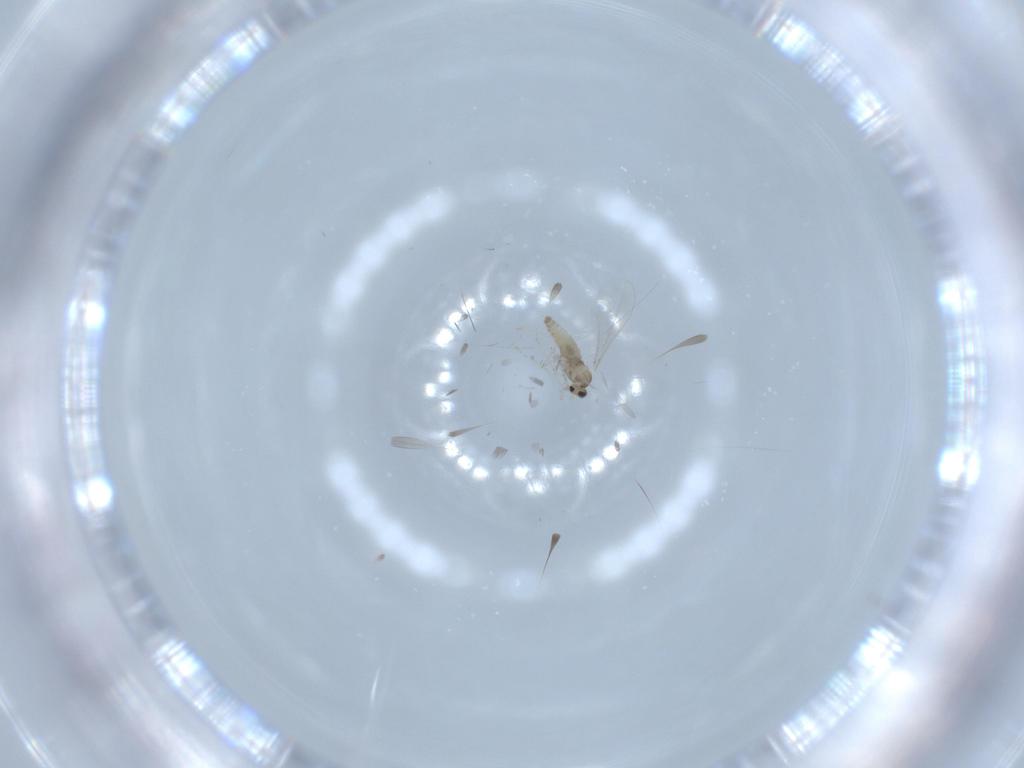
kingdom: Animalia
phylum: Arthropoda
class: Insecta
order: Diptera
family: Cecidomyiidae
